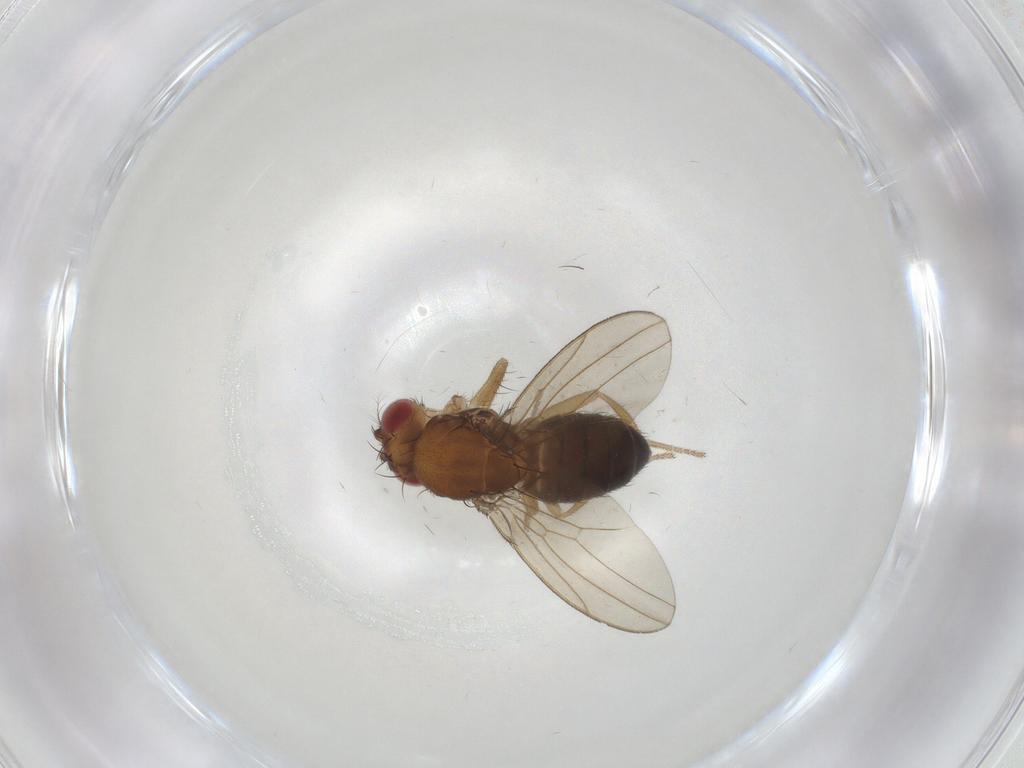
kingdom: Animalia
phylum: Arthropoda
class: Insecta
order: Diptera
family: Drosophilidae
